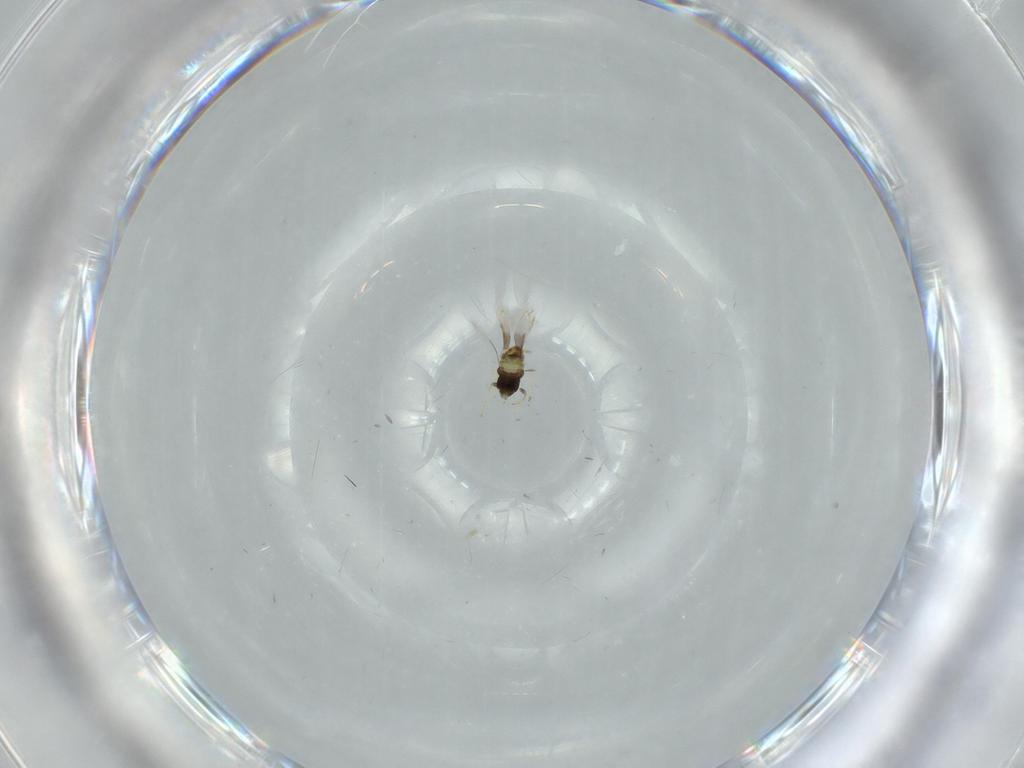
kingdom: Animalia
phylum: Arthropoda
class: Insecta
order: Hymenoptera
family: Aphelinidae
